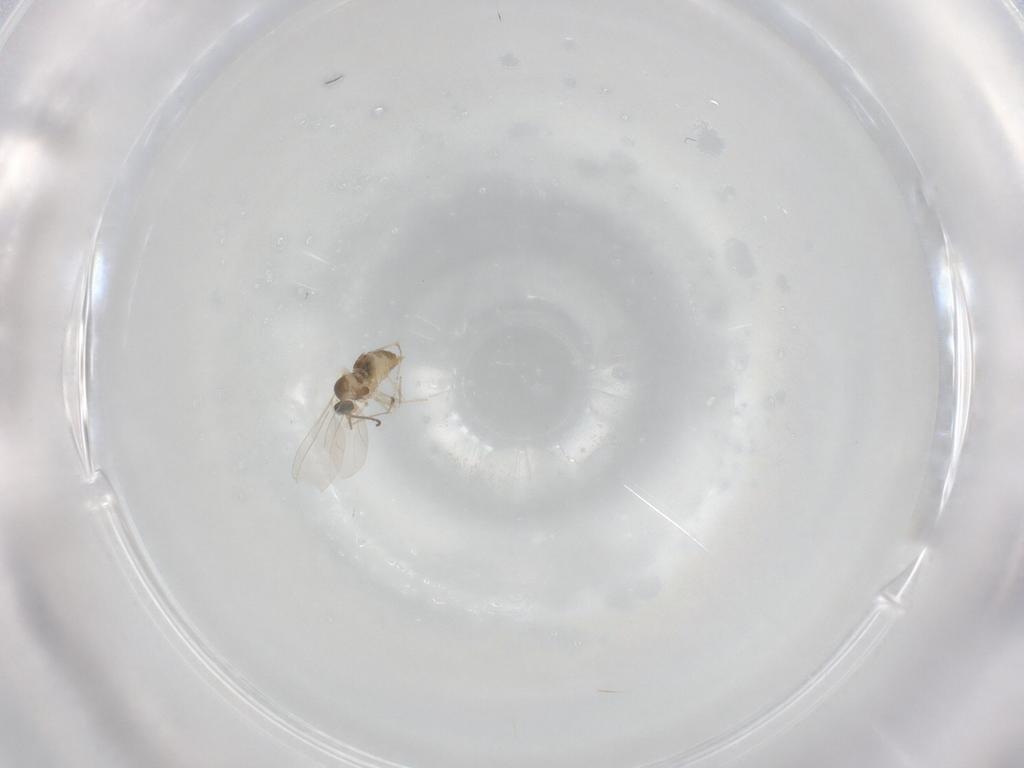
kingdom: Animalia
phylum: Arthropoda
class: Insecta
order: Diptera
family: Cecidomyiidae
